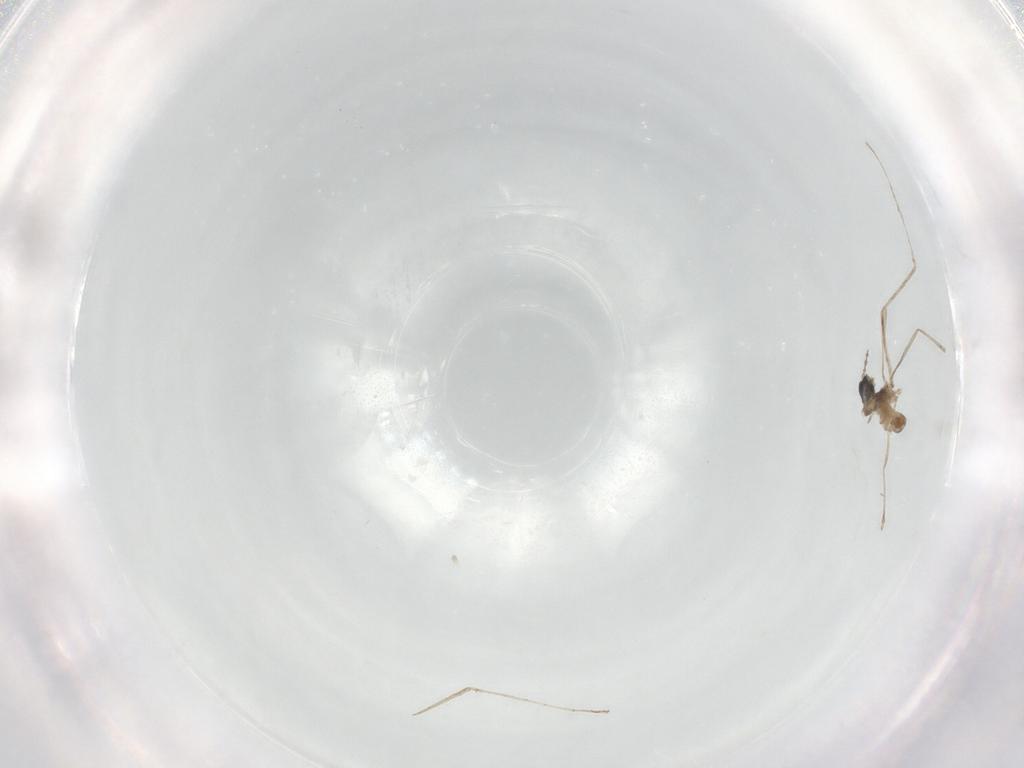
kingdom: Animalia
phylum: Arthropoda
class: Insecta
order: Diptera
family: Cecidomyiidae
